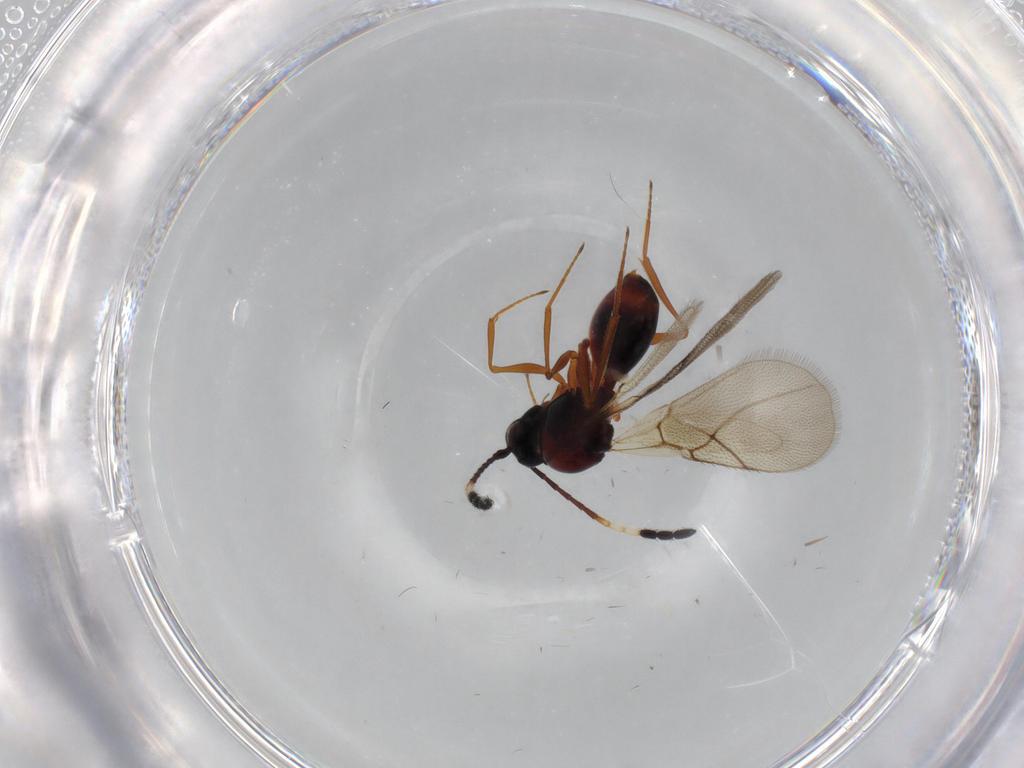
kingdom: Animalia
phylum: Arthropoda
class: Insecta
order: Hymenoptera
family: Figitidae
